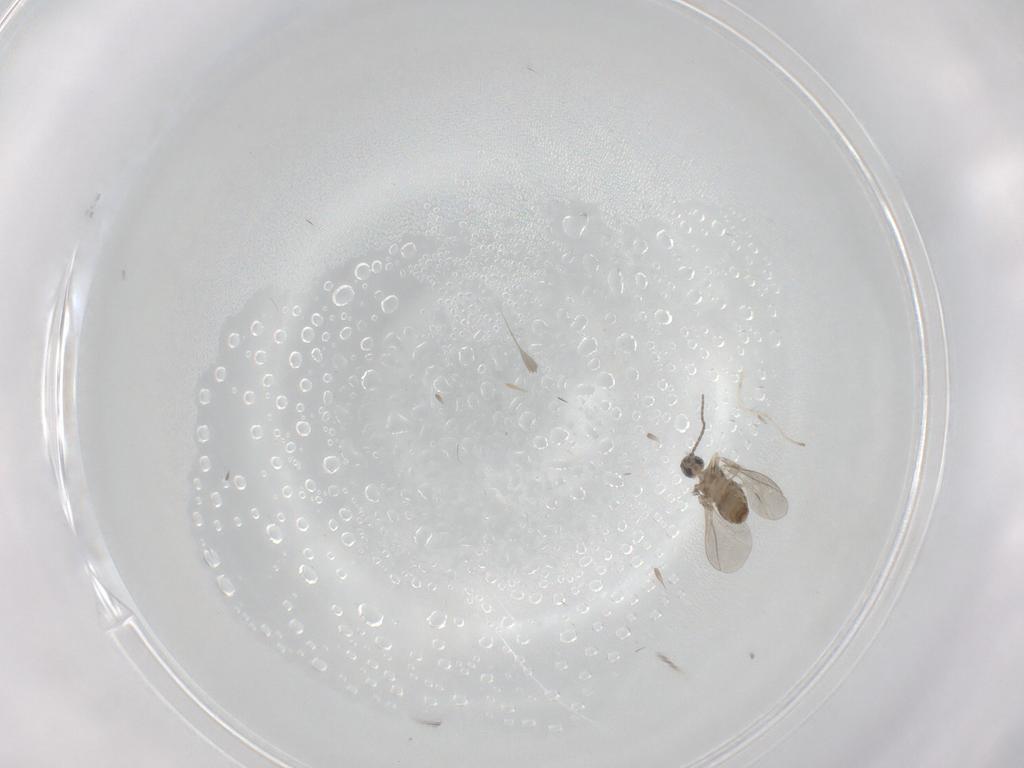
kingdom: Animalia
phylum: Arthropoda
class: Insecta
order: Diptera
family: Cecidomyiidae
